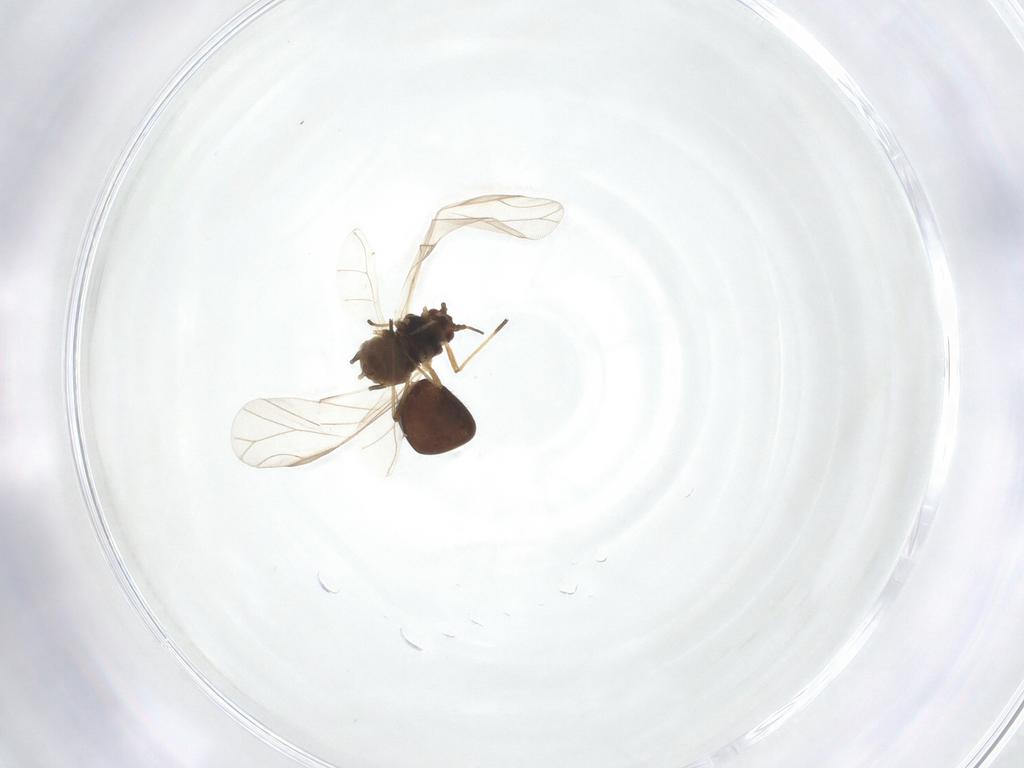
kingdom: Animalia
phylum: Arthropoda
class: Insecta
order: Hemiptera
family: Aphididae
